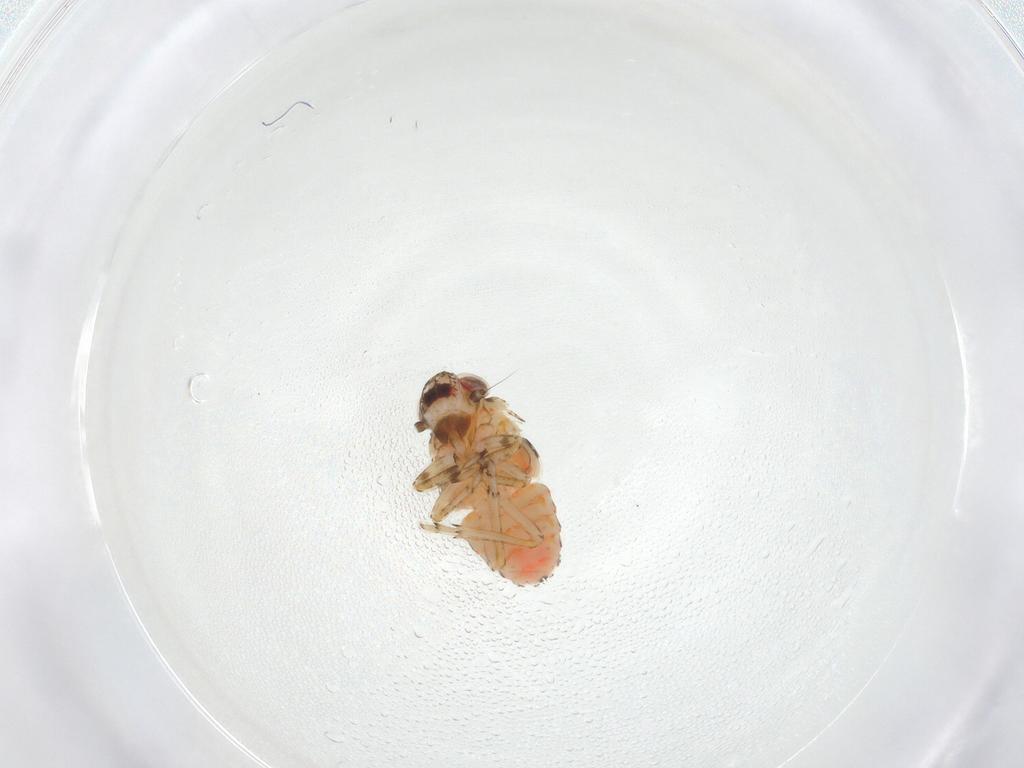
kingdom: Animalia
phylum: Arthropoda
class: Insecta
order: Hemiptera
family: Issidae
